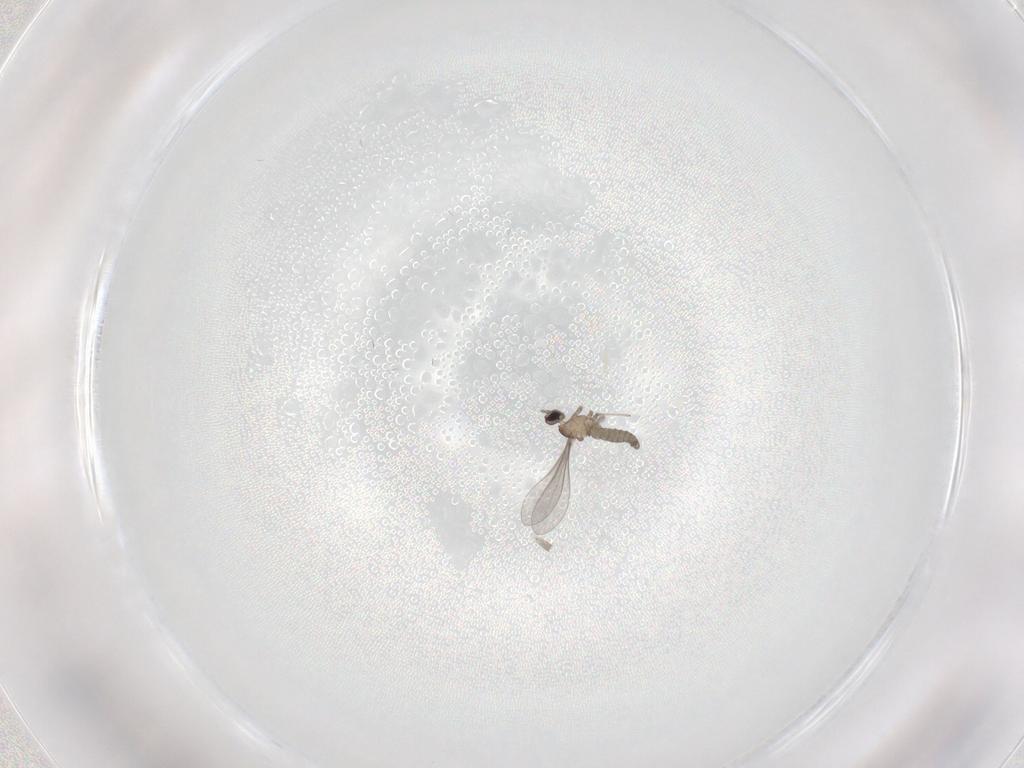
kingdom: Animalia
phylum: Arthropoda
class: Insecta
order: Diptera
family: Cecidomyiidae
